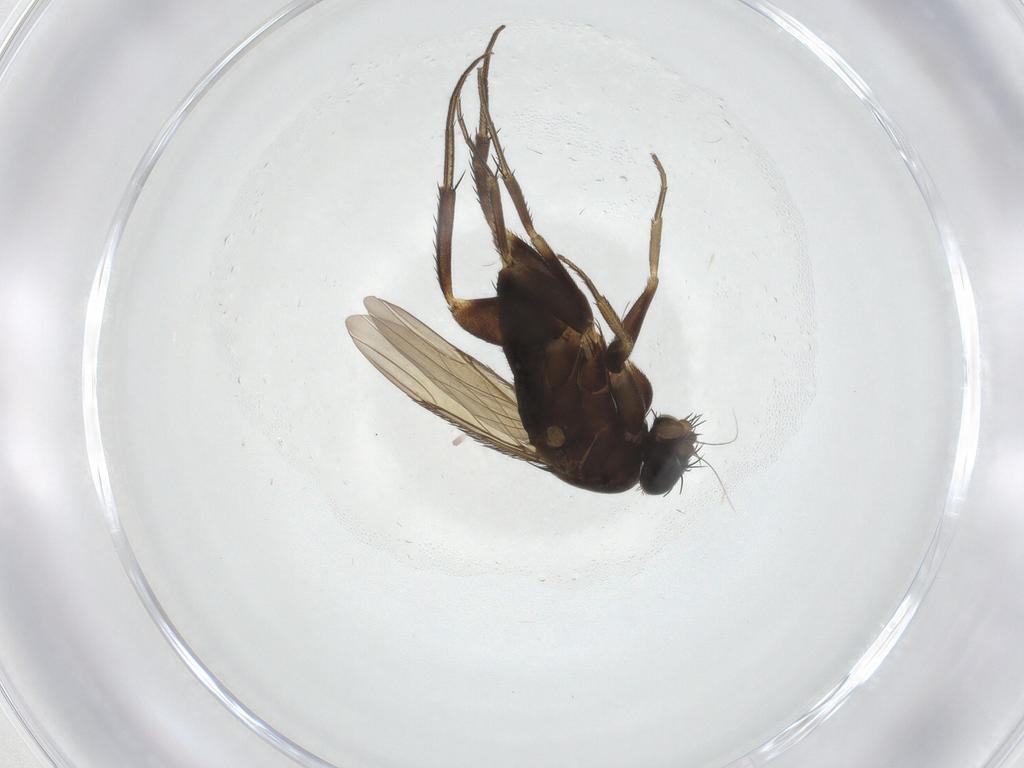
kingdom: Animalia
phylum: Arthropoda
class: Insecta
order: Diptera
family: Phoridae
